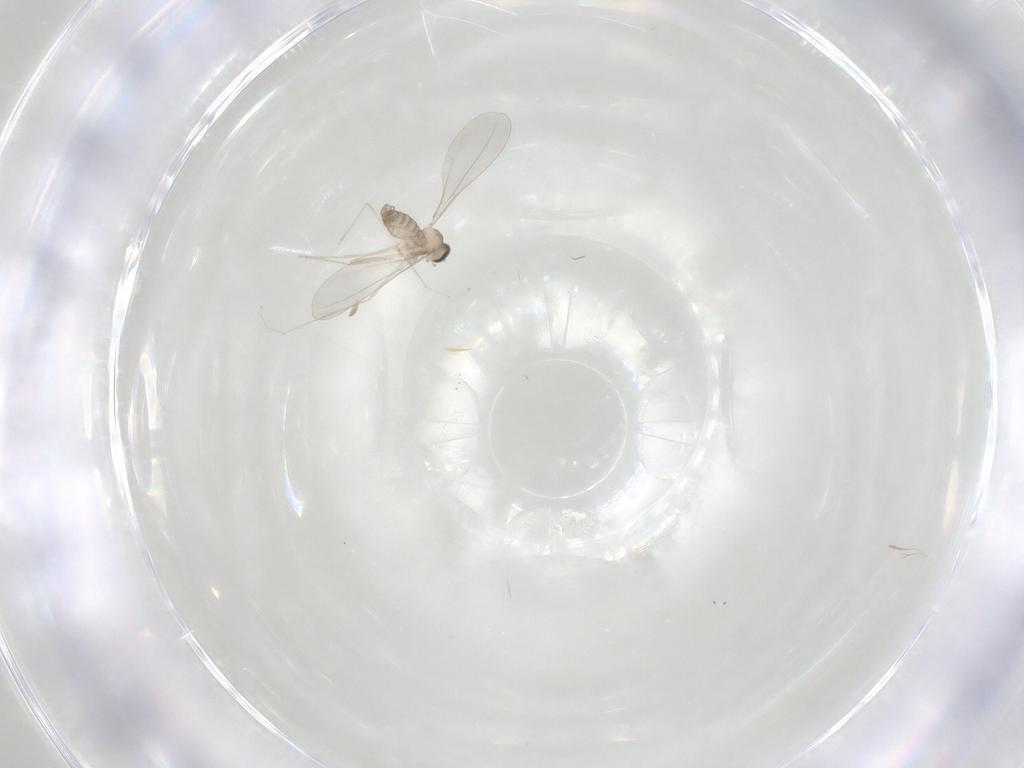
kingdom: Animalia
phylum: Arthropoda
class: Insecta
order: Diptera
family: Cecidomyiidae
